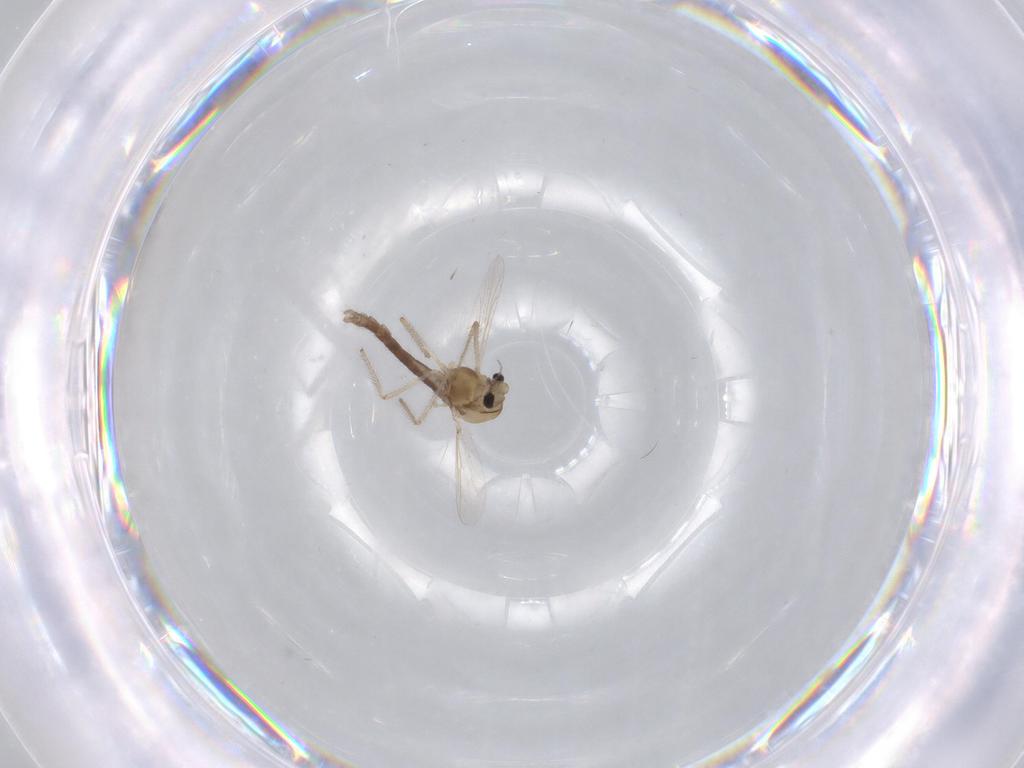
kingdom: Animalia
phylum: Arthropoda
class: Insecta
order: Diptera
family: Chironomidae
